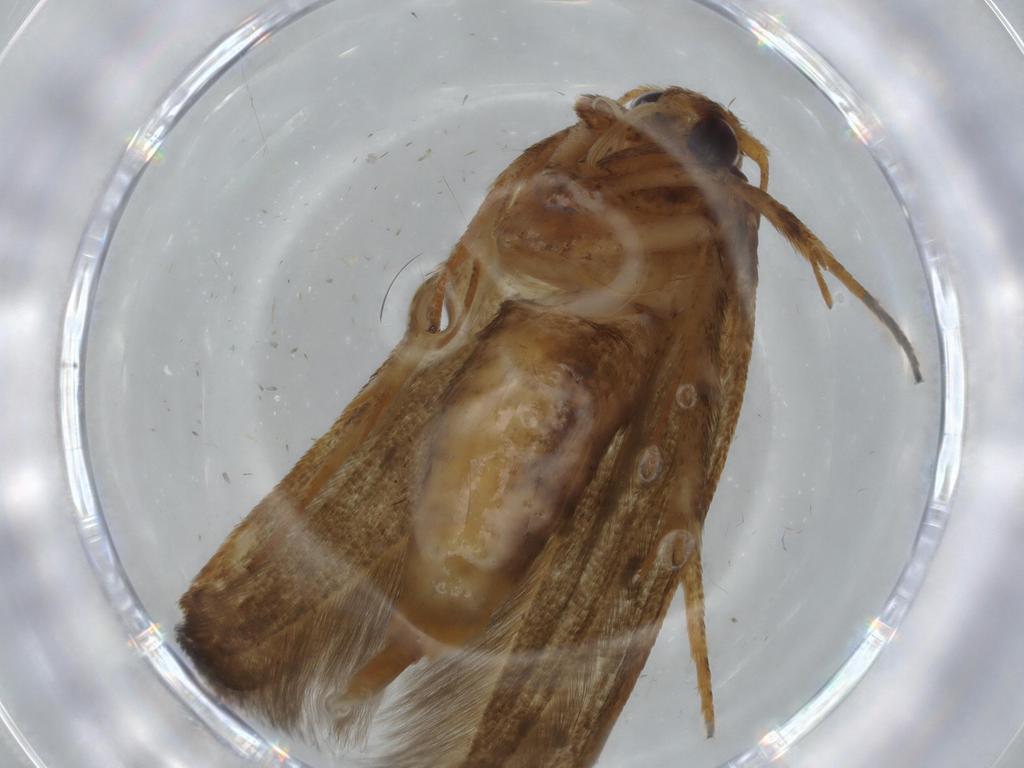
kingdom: Animalia
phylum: Arthropoda
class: Insecta
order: Lepidoptera
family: Blastobasidae
